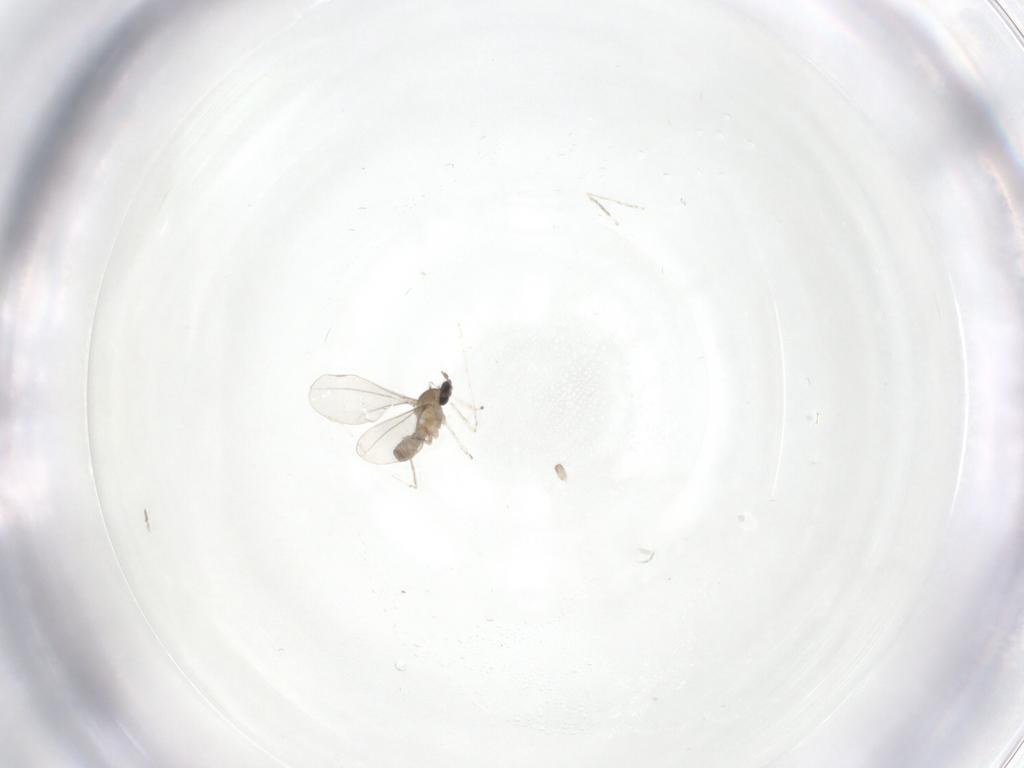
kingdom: Animalia
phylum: Arthropoda
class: Insecta
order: Diptera
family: Cecidomyiidae
